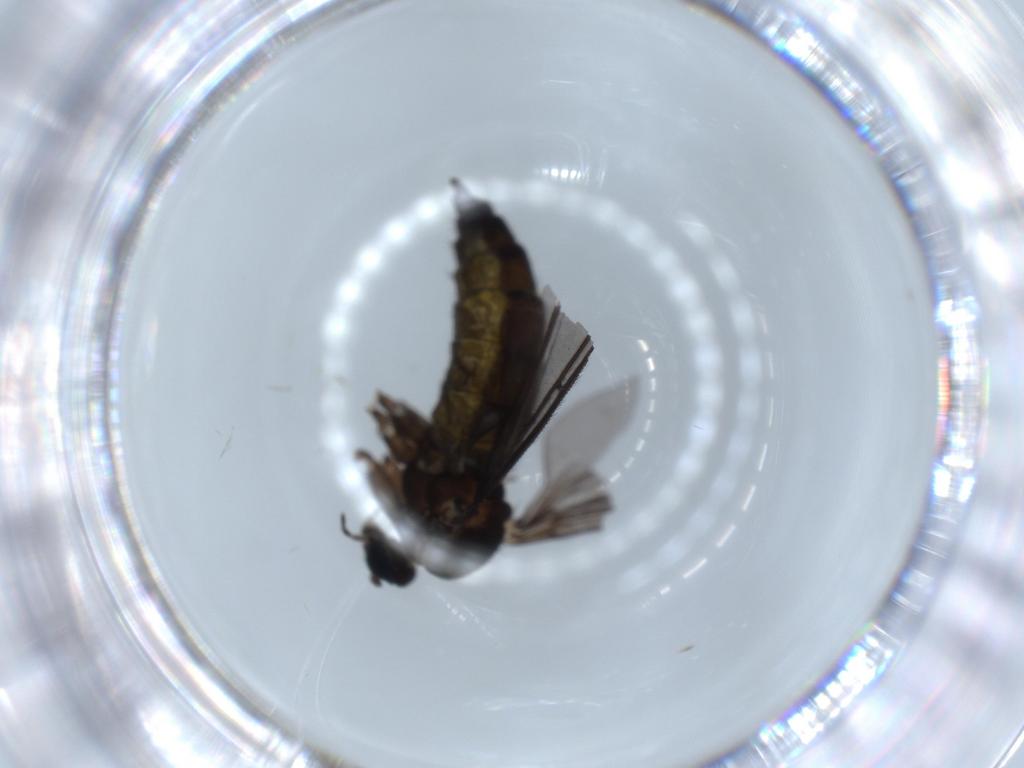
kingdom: Animalia
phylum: Arthropoda
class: Insecta
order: Diptera
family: Sciaridae
